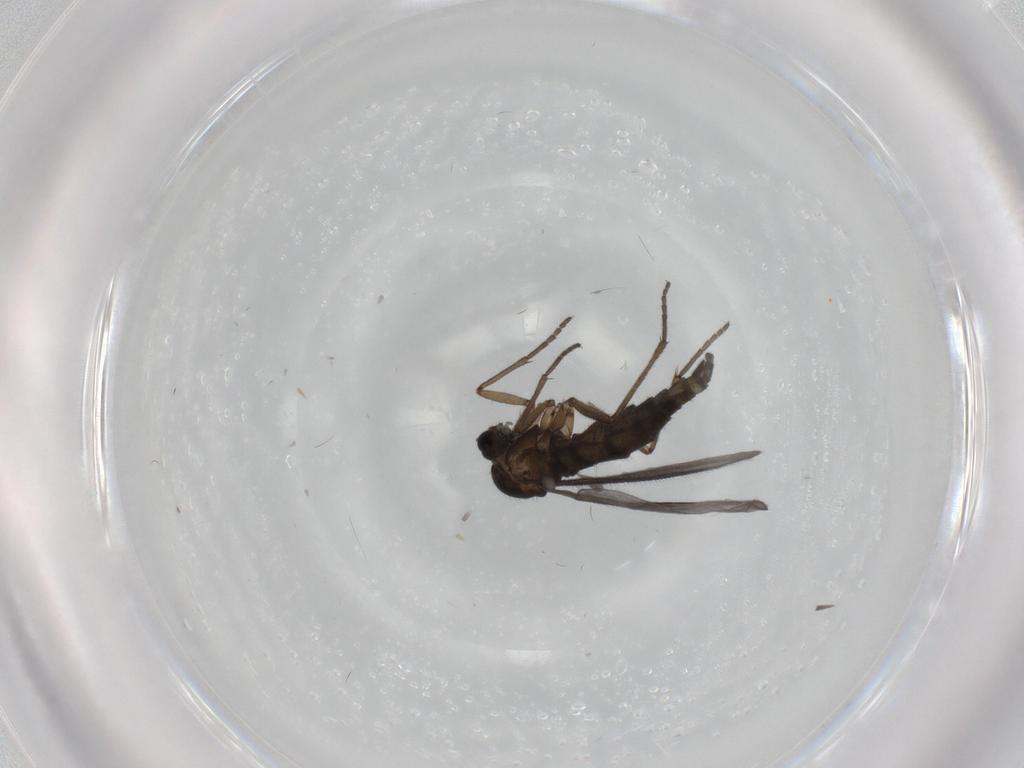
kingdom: Animalia
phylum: Arthropoda
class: Insecta
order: Diptera
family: Sciaridae
